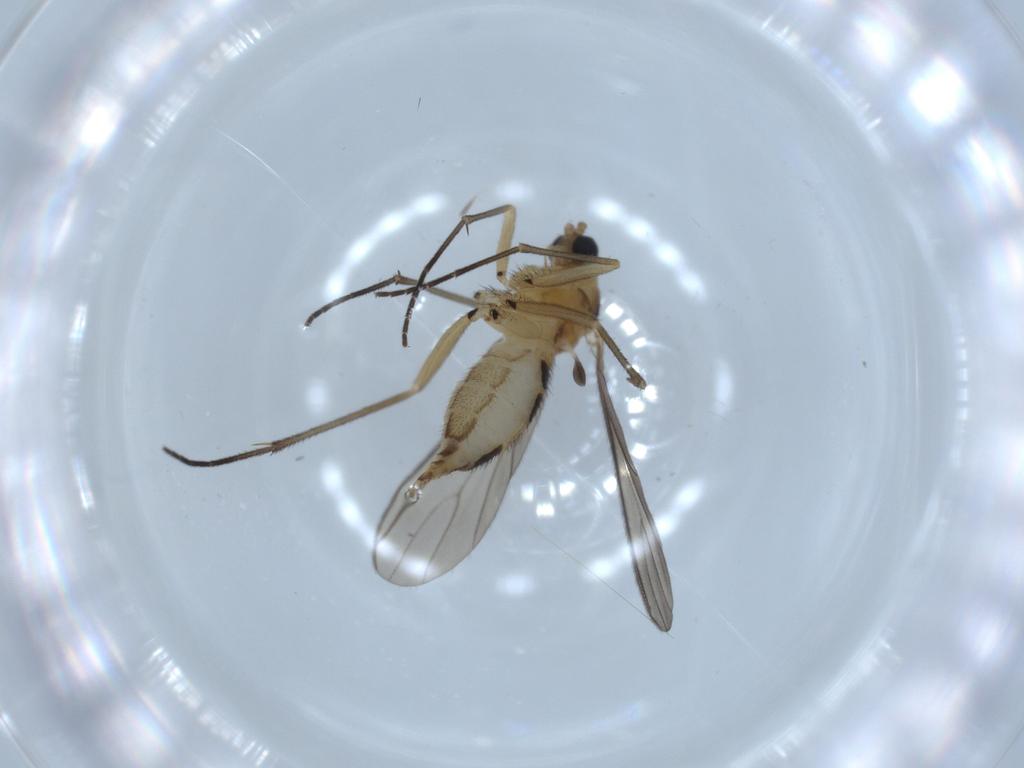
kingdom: Animalia
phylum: Arthropoda
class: Insecta
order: Diptera
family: Sciaridae
